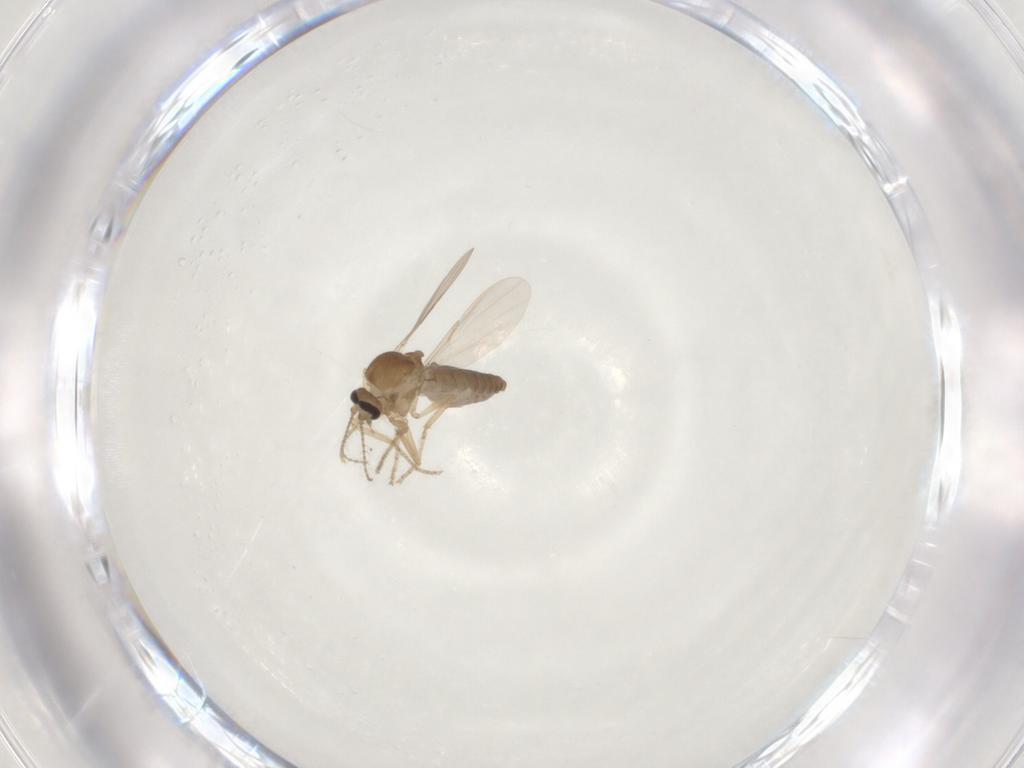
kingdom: Animalia
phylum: Arthropoda
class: Insecta
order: Diptera
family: Ceratopogonidae
